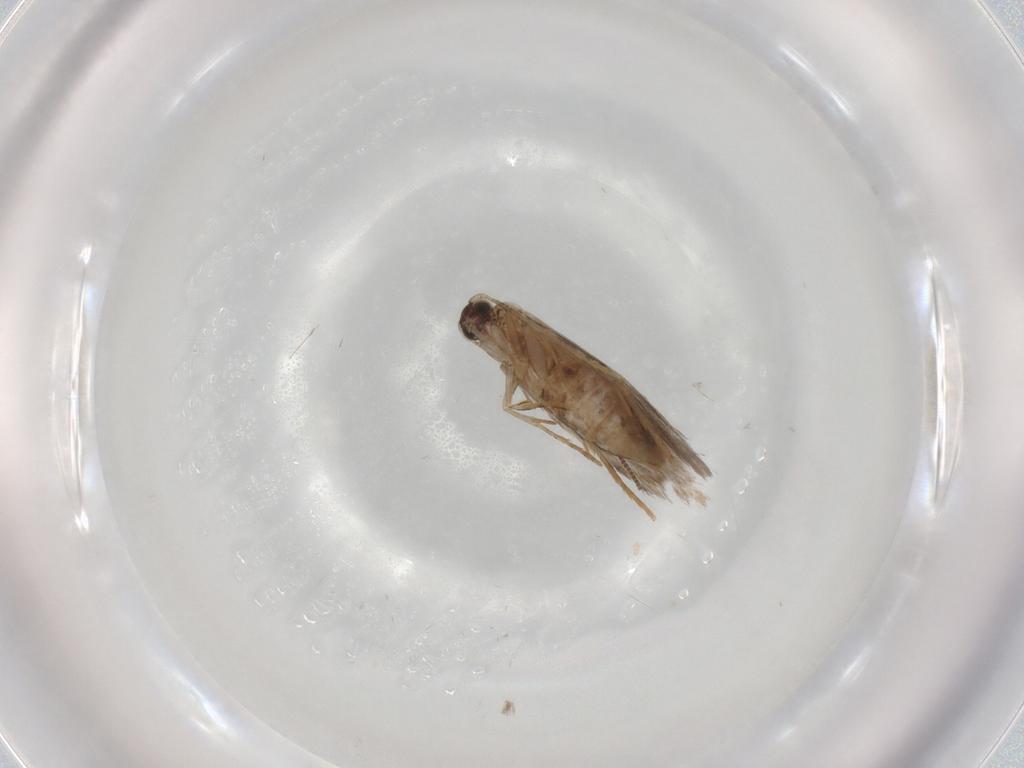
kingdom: Animalia
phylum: Arthropoda
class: Insecta
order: Lepidoptera
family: Tineidae
